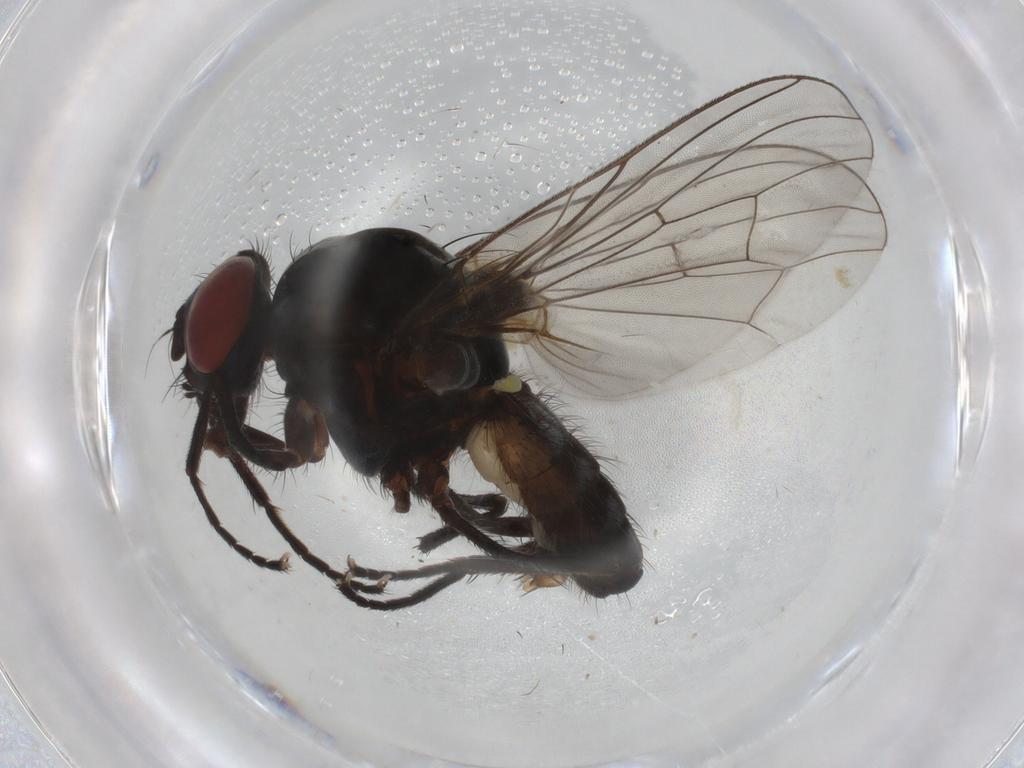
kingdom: Animalia
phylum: Arthropoda
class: Insecta
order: Diptera
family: Anthomyiidae
